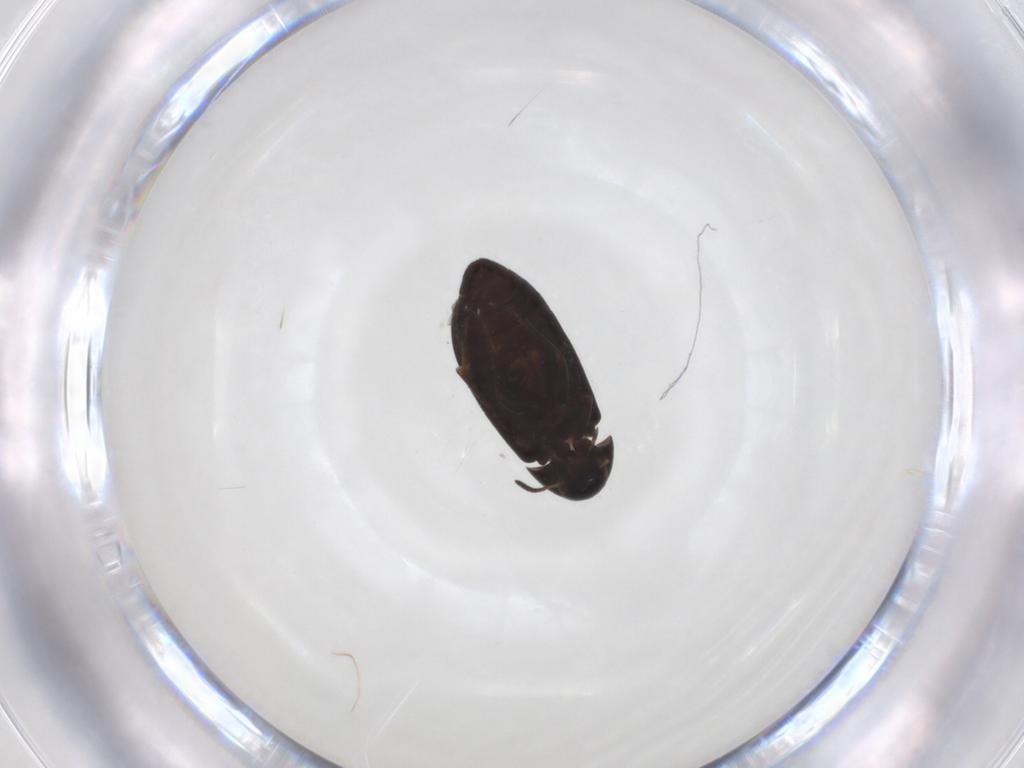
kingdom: Animalia
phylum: Arthropoda
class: Insecta
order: Coleoptera
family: Scraptiidae
